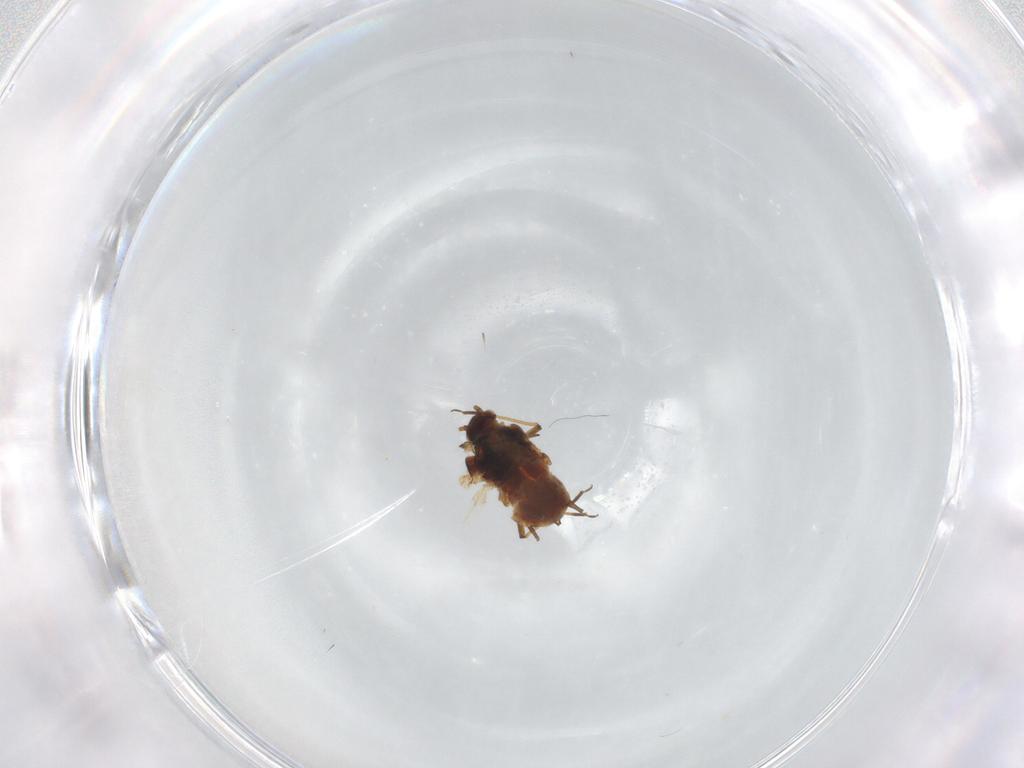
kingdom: Animalia
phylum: Arthropoda
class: Insecta
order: Hemiptera
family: Aphididae
